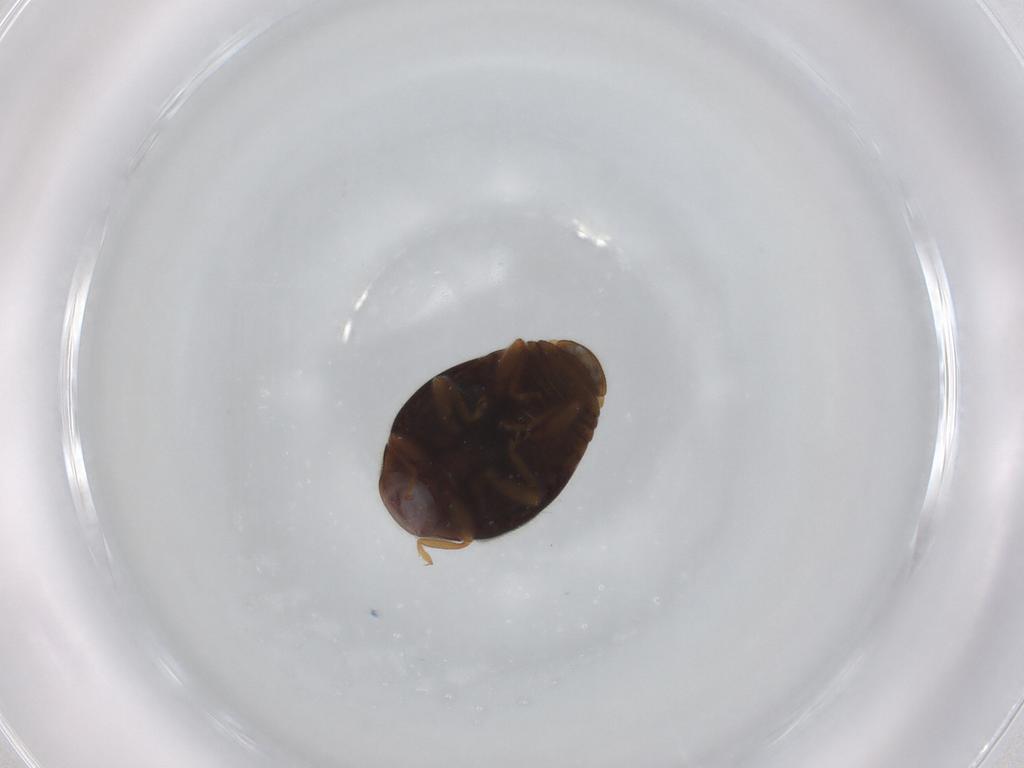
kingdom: Animalia
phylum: Arthropoda
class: Insecta
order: Coleoptera
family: Coccinellidae
